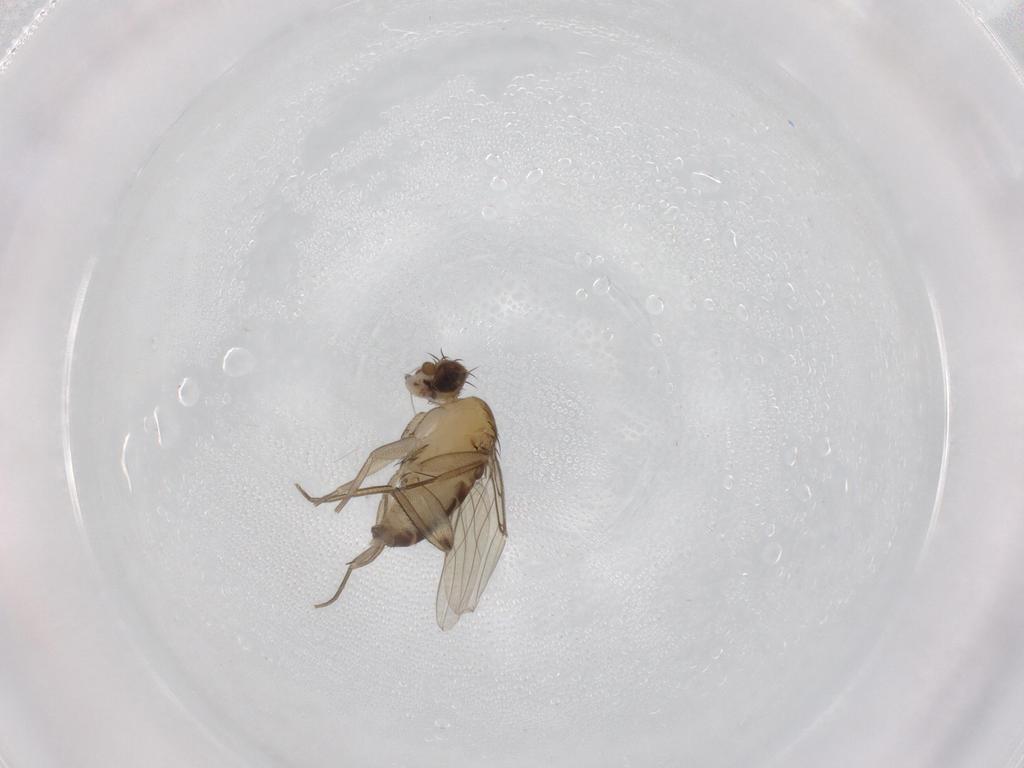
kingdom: Animalia
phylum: Arthropoda
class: Insecta
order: Diptera
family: Phoridae
